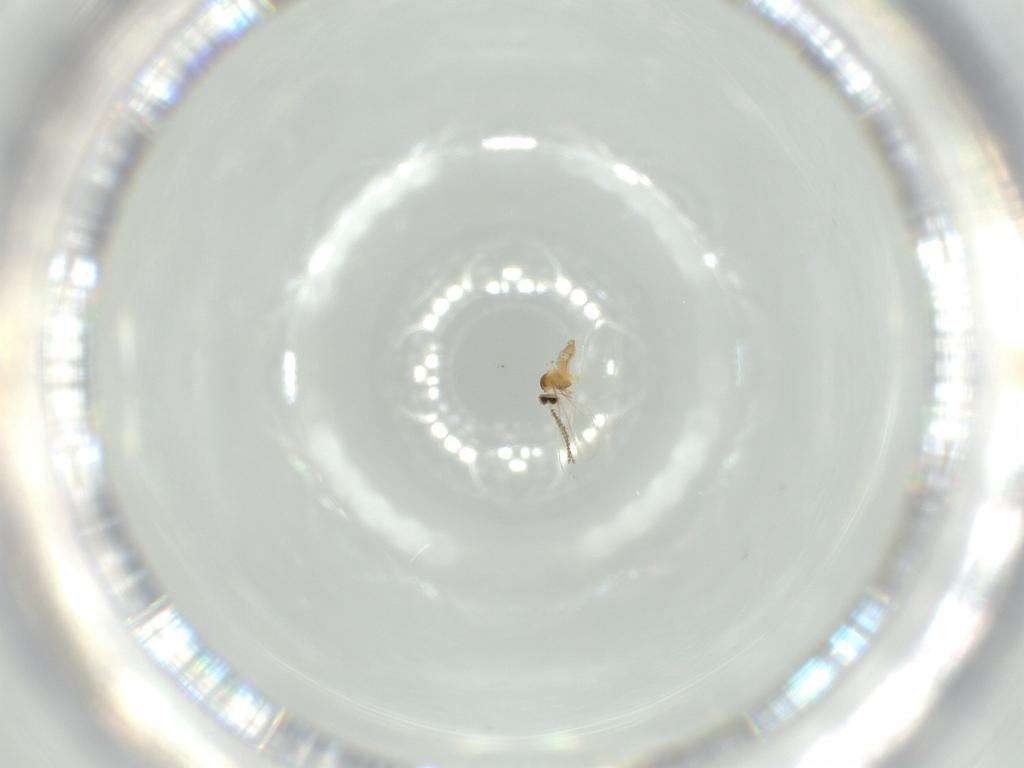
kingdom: Animalia
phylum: Arthropoda
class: Insecta
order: Diptera
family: Cecidomyiidae
